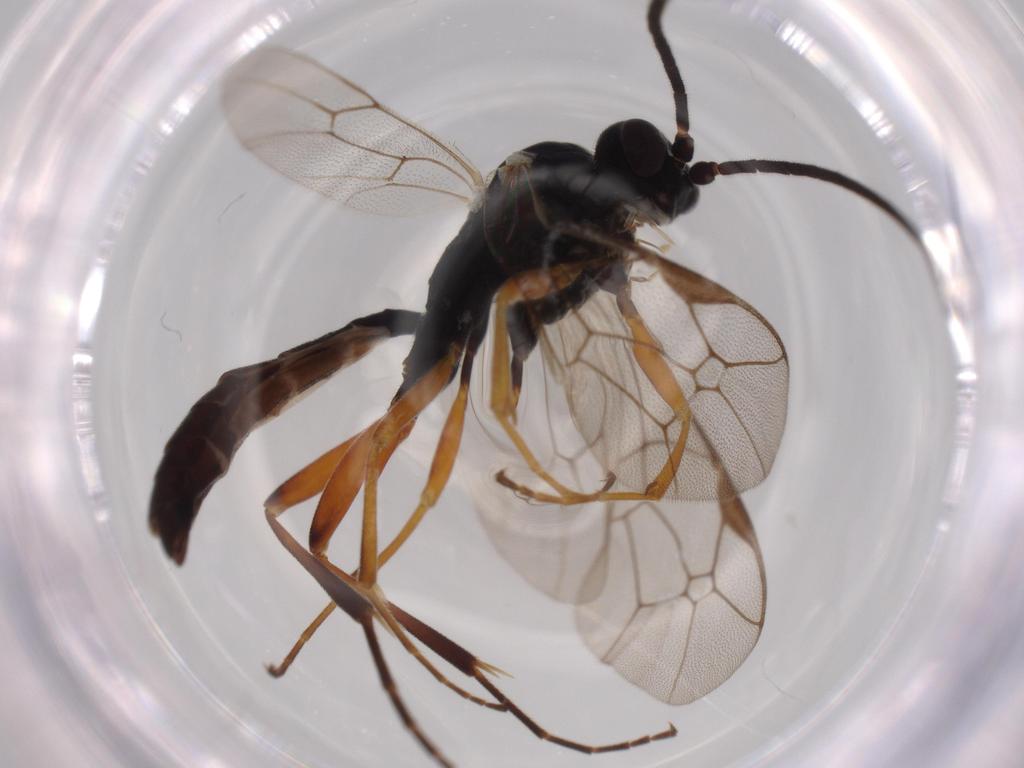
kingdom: Animalia
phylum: Arthropoda
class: Insecta
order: Hymenoptera
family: Ichneumonidae
